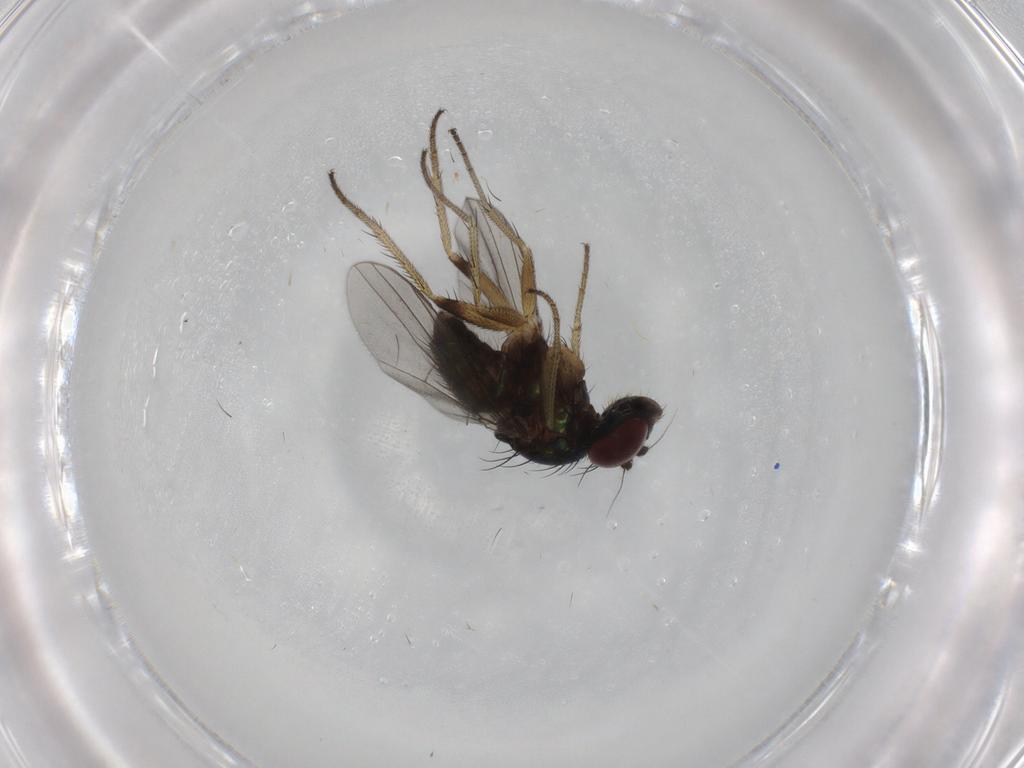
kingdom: Animalia
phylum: Arthropoda
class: Insecta
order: Diptera
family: Dolichopodidae
